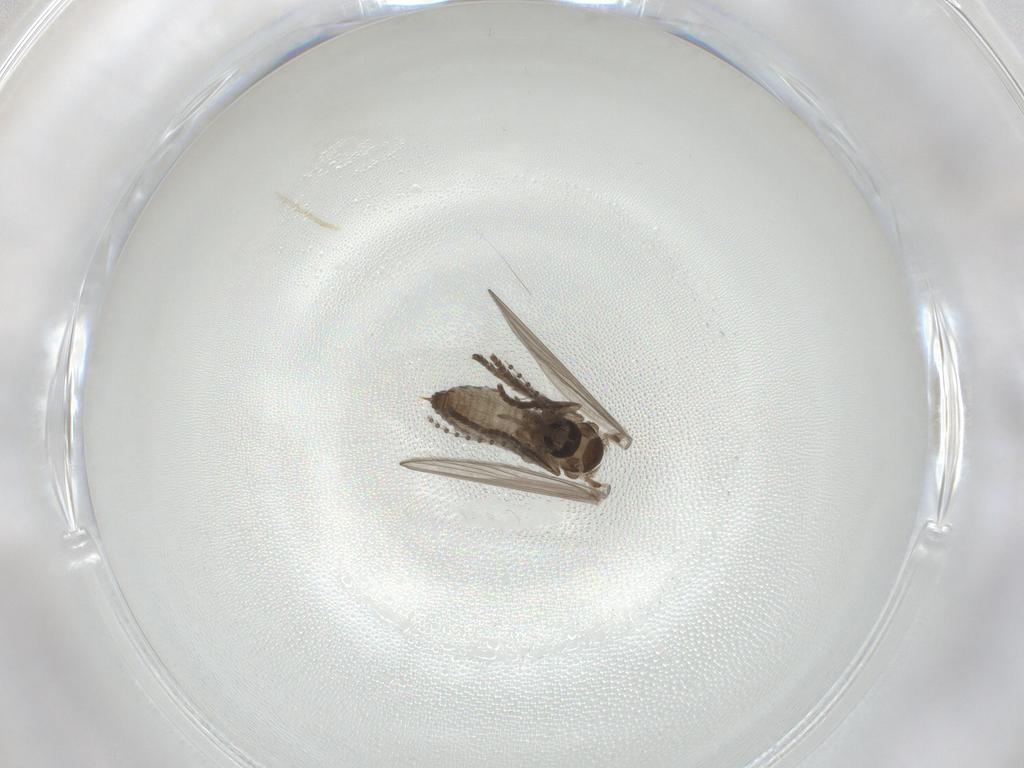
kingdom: Animalia
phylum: Arthropoda
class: Insecta
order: Diptera
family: Psychodidae
